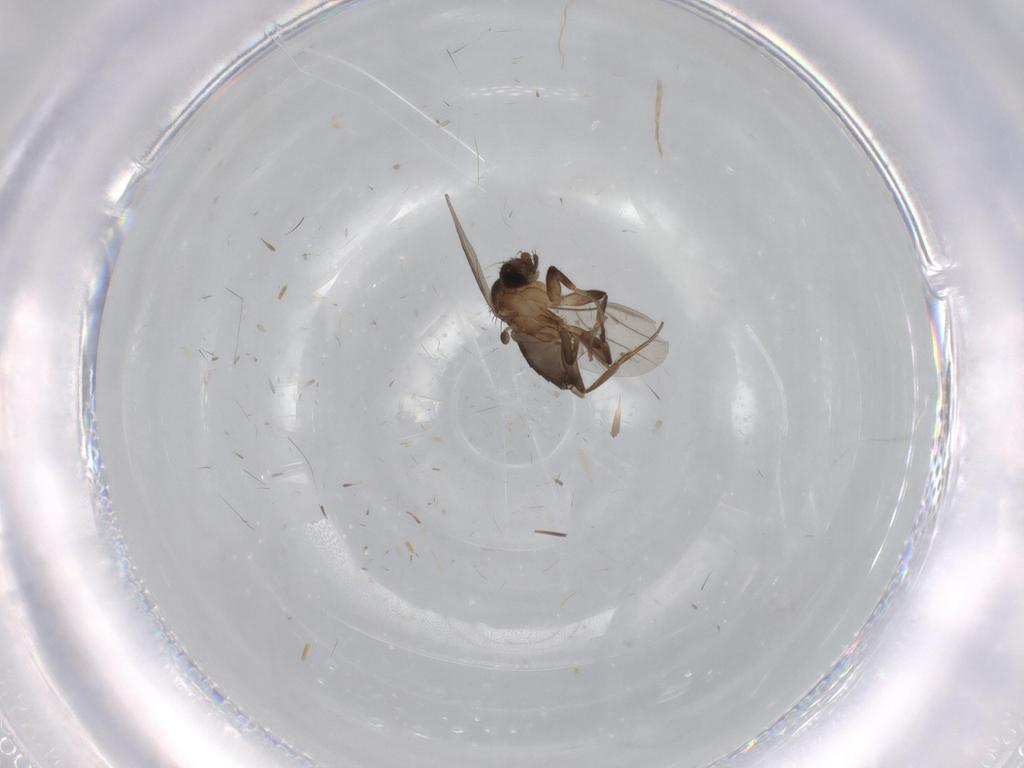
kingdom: Animalia
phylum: Arthropoda
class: Insecta
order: Diptera
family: Phoridae
